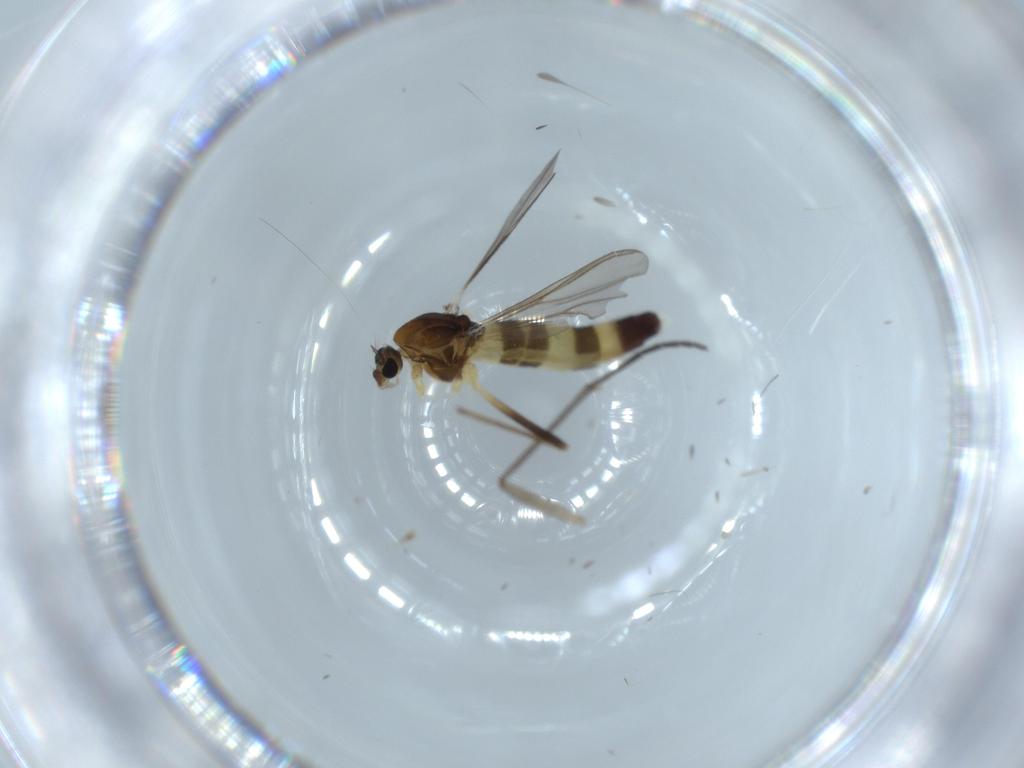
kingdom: Animalia
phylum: Arthropoda
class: Insecta
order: Diptera
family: Chironomidae
